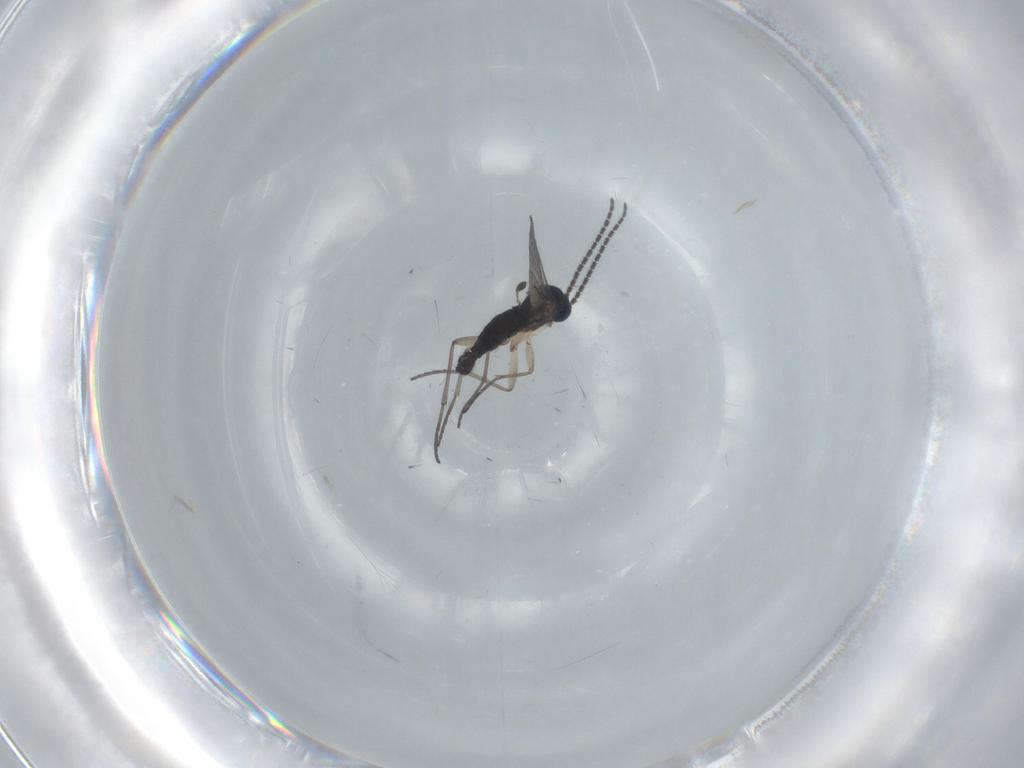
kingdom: Animalia
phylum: Arthropoda
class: Insecta
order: Diptera
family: Sciaridae
